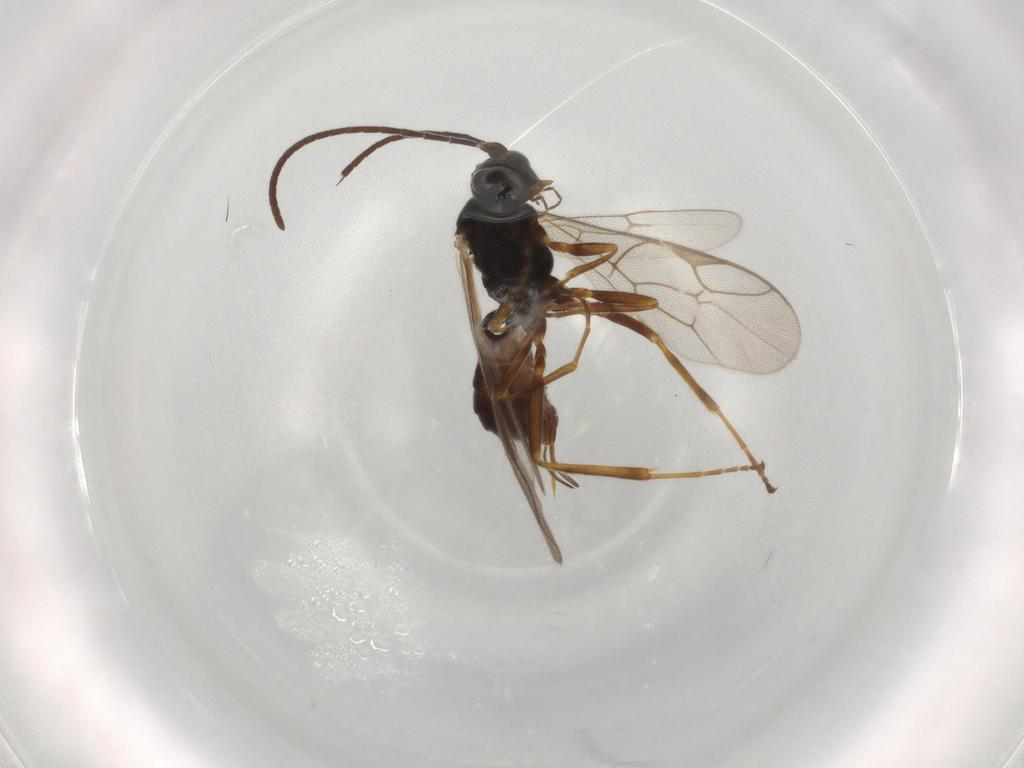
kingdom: Animalia
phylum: Arthropoda
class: Insecta
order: Hymenoptera
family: Ichneumonidae
